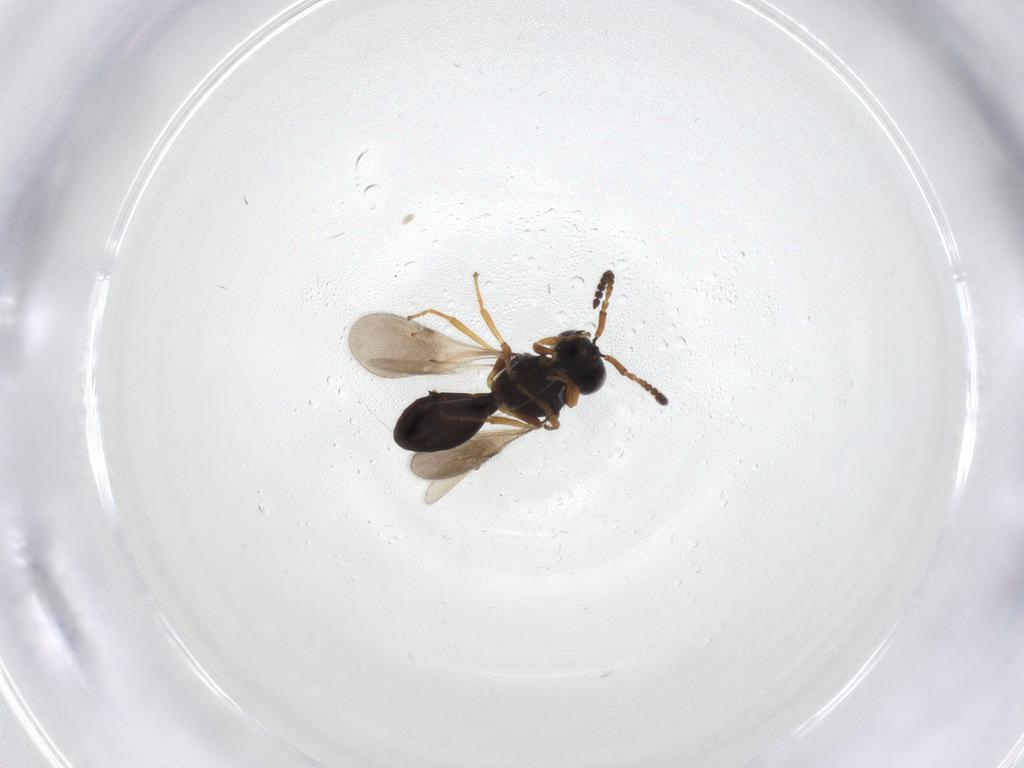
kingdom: Animalia
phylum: Arthropoda
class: Insecta
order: Hymenoptera
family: Scelionidae
